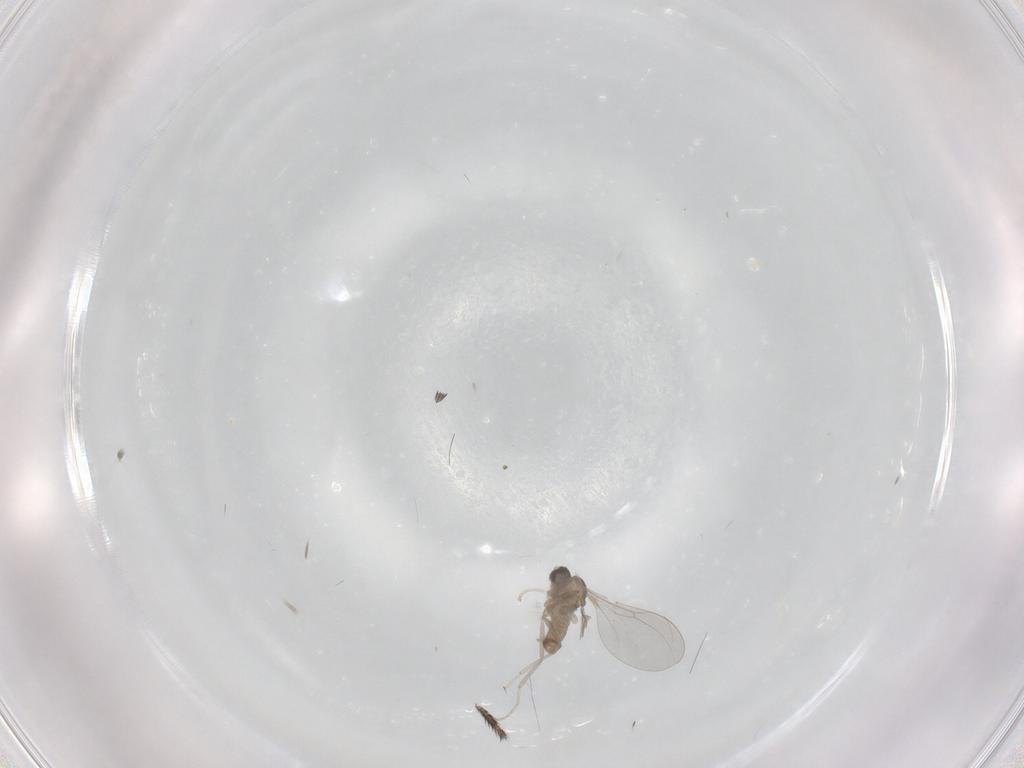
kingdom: Animalia
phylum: Arthropoda
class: Insecta
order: Diptera
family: Cecidomyiidae
